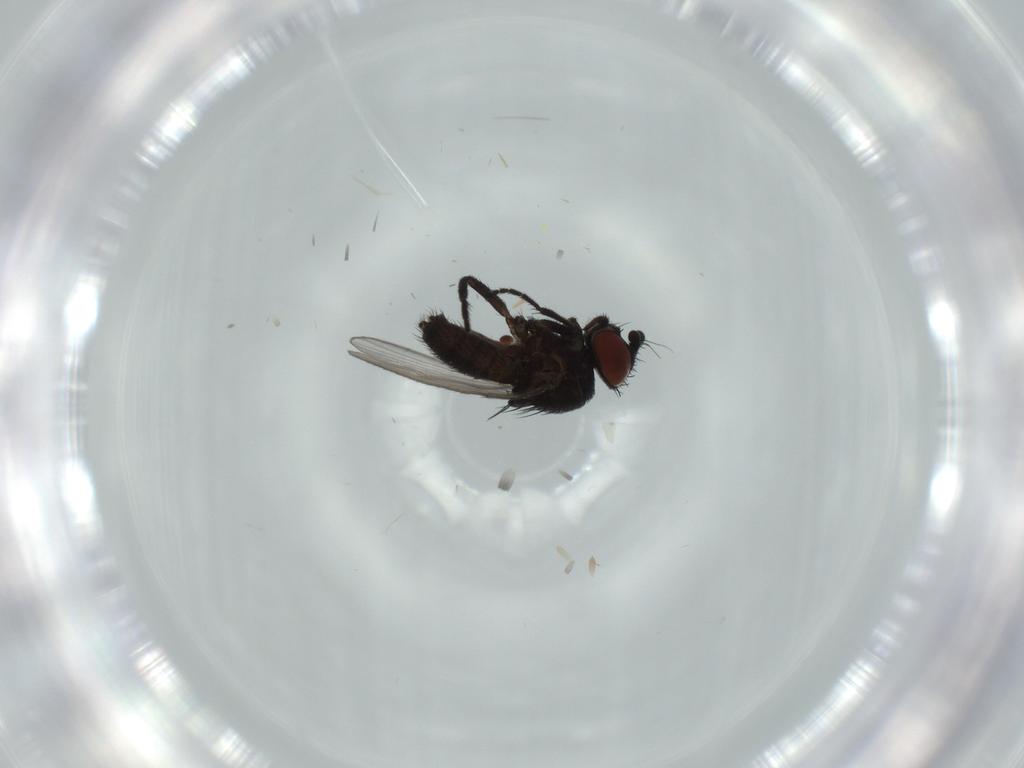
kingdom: Animalia
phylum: Arthropoda
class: Insecta
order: Diptera
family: Milichiidae
